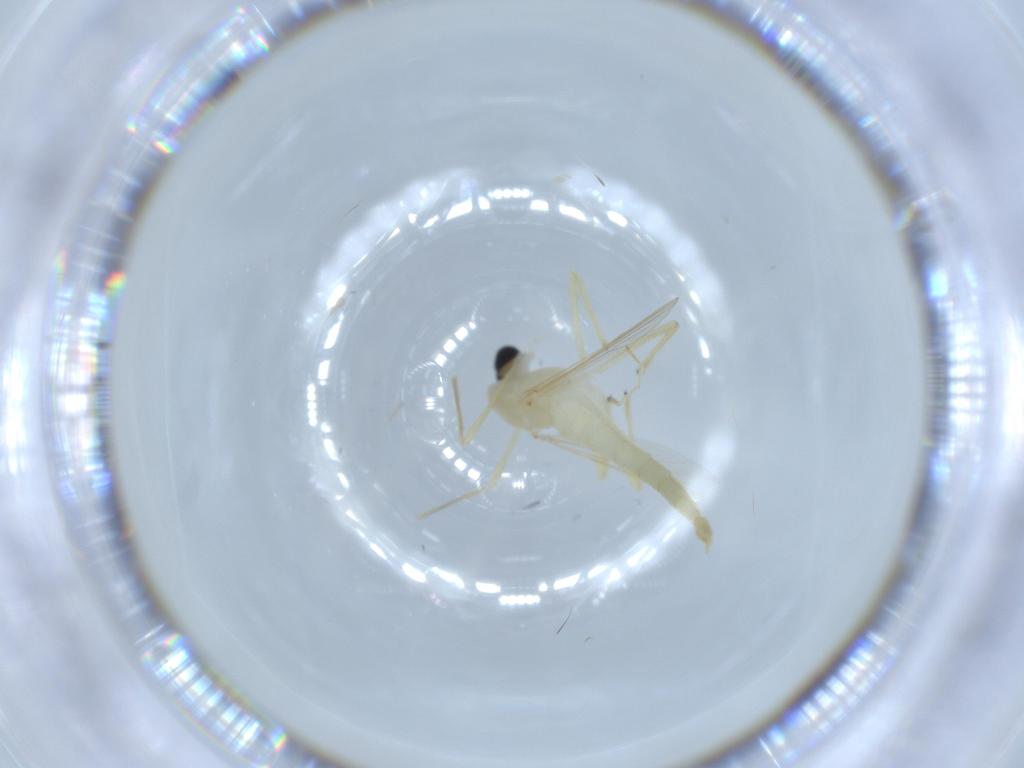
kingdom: Animalia
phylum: Arthropoda
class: Insecta
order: Diptera
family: Chironomidae
